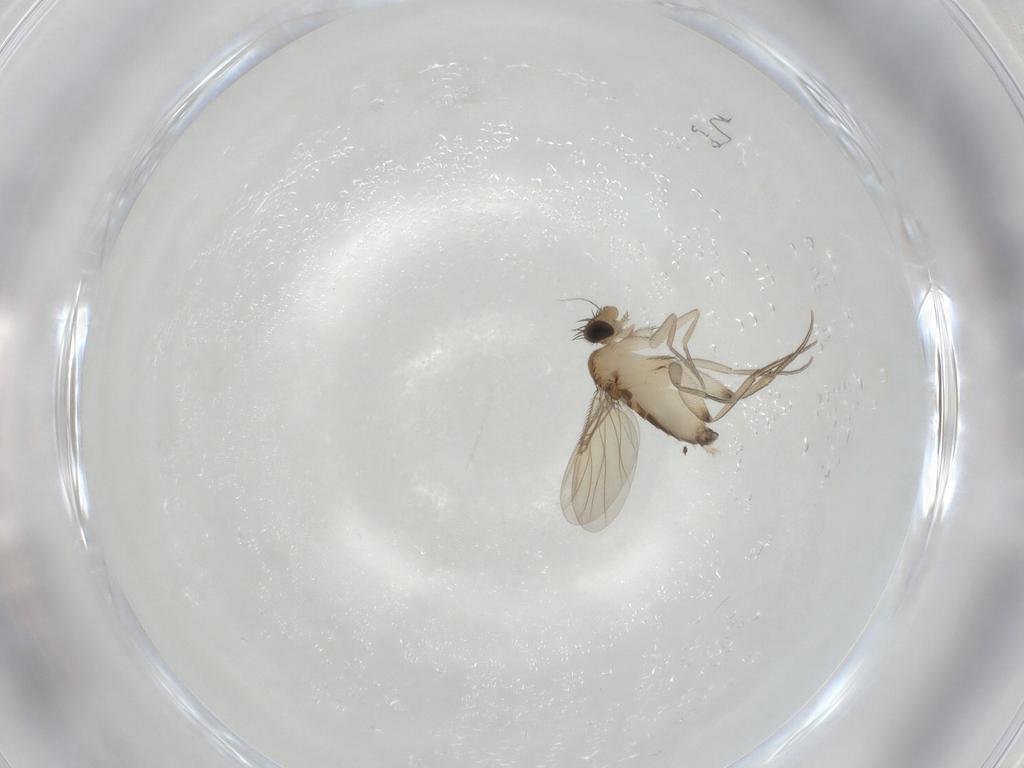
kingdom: Animalia
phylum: Arthropoda
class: Insecta
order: Diptera
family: Phoridae
